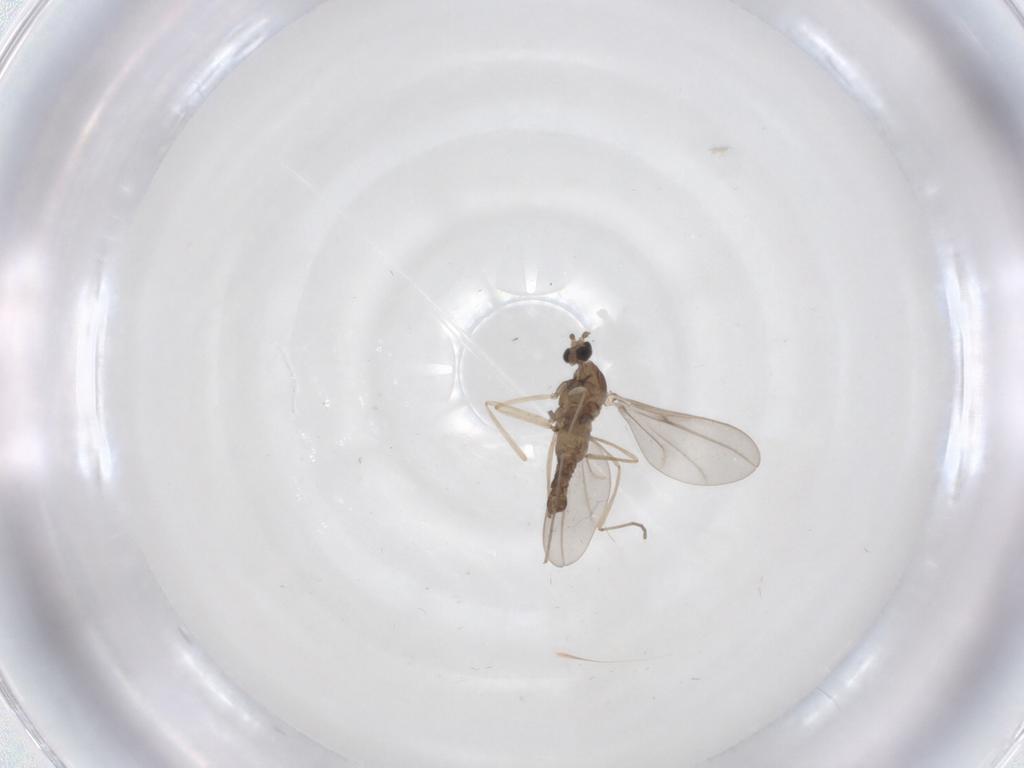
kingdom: Animalia
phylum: Arthropoda
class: Insecta
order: Diptera
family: Cecidomyiidae
